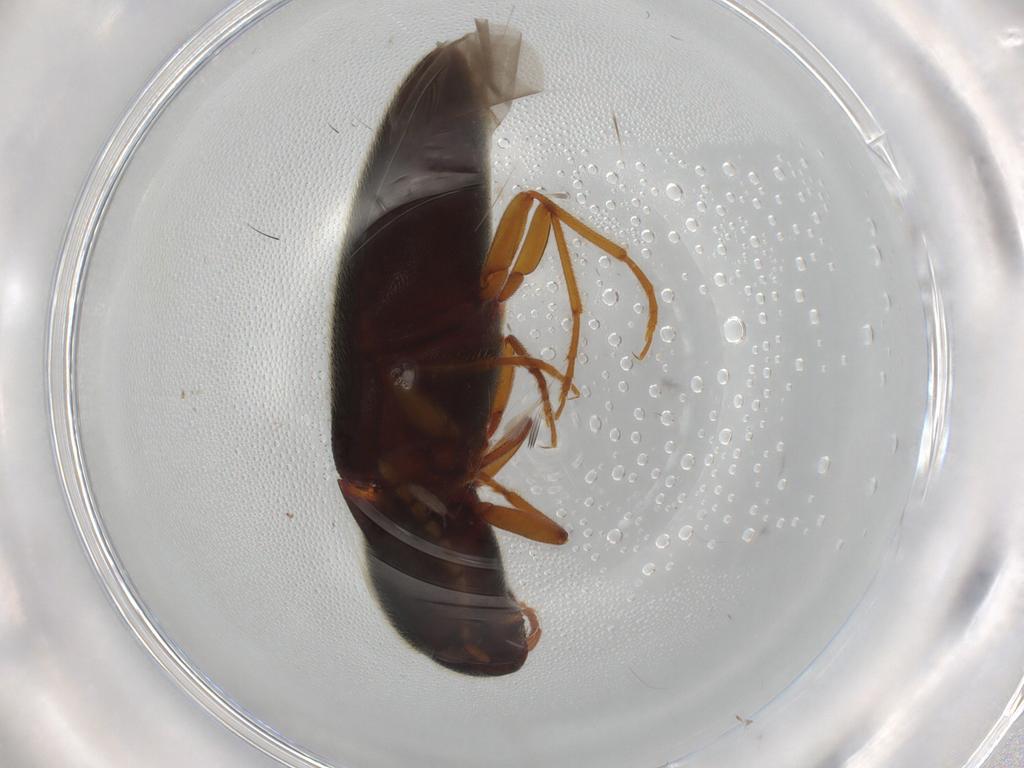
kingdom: Animalia
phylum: Arthropoda
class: Insecta
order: Coleoptera
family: Elateridae
